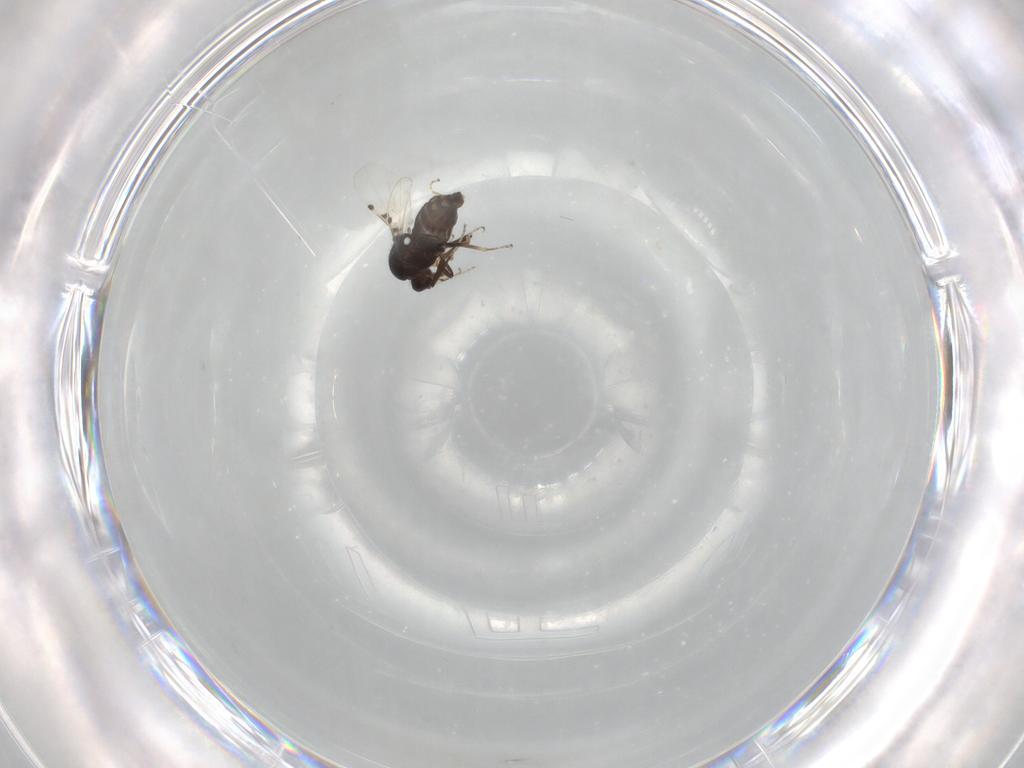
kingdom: Animalia
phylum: Arthropoda
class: Insecta
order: Diptera
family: Ceratopogonidae
